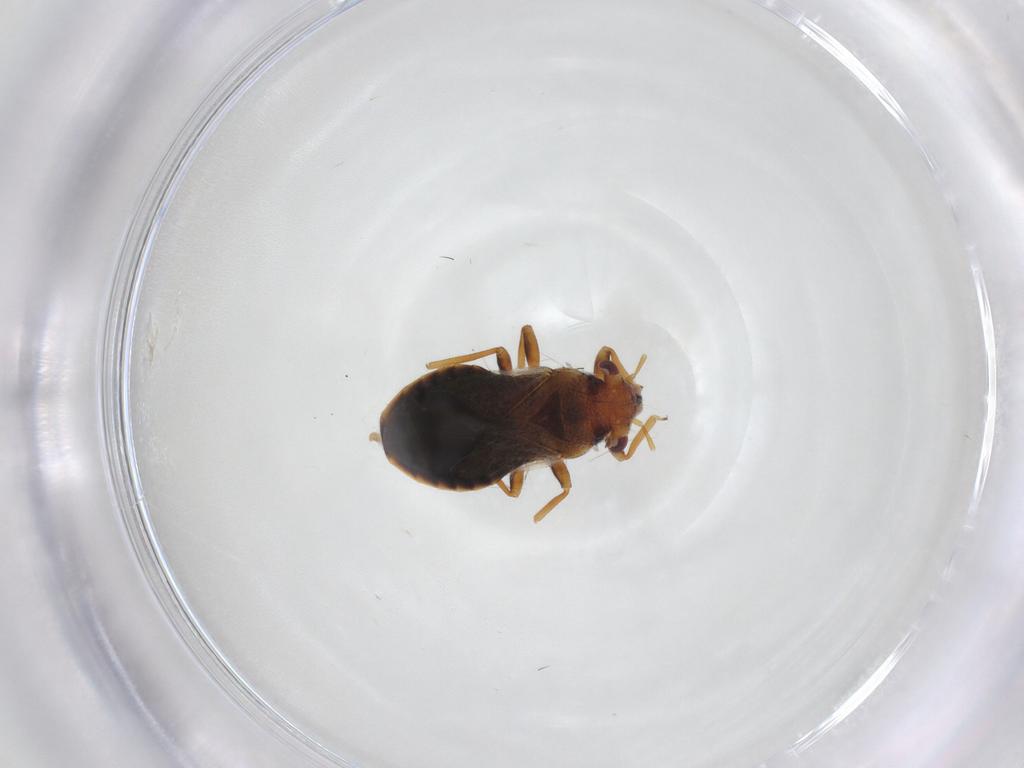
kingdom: Animalia
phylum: Arthropoda
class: Insecta
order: Hemiptera
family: Thaumastocoridae
